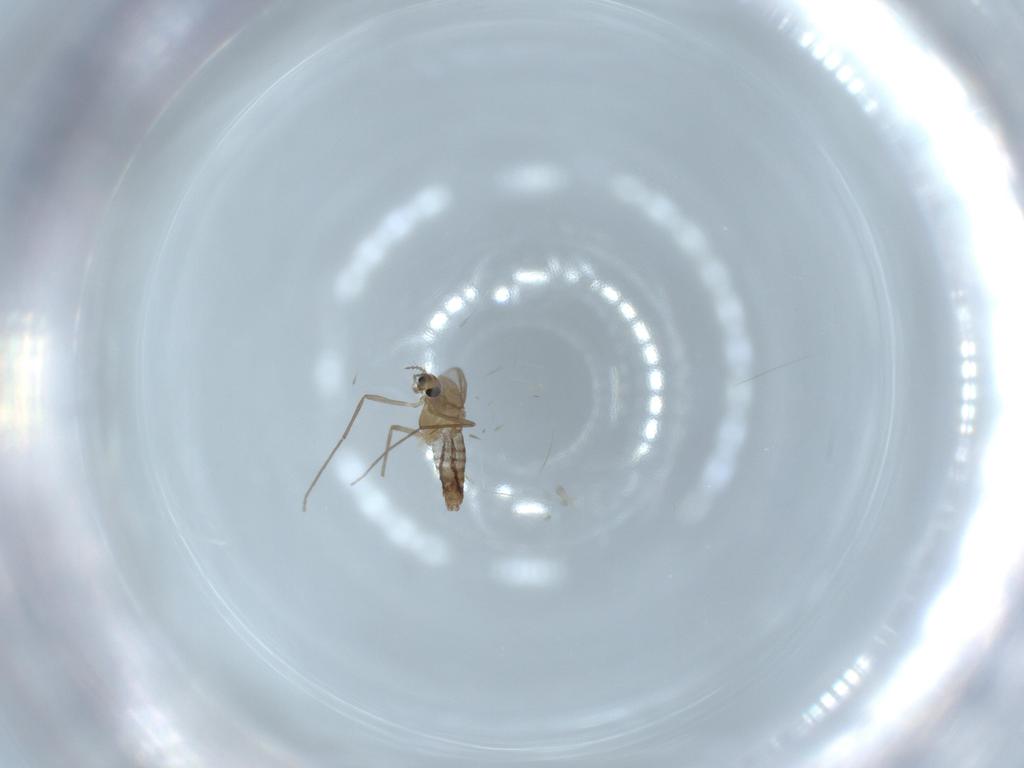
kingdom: Animalia
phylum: Arthropoda
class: Insecta
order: Diptera
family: Chironomidae
